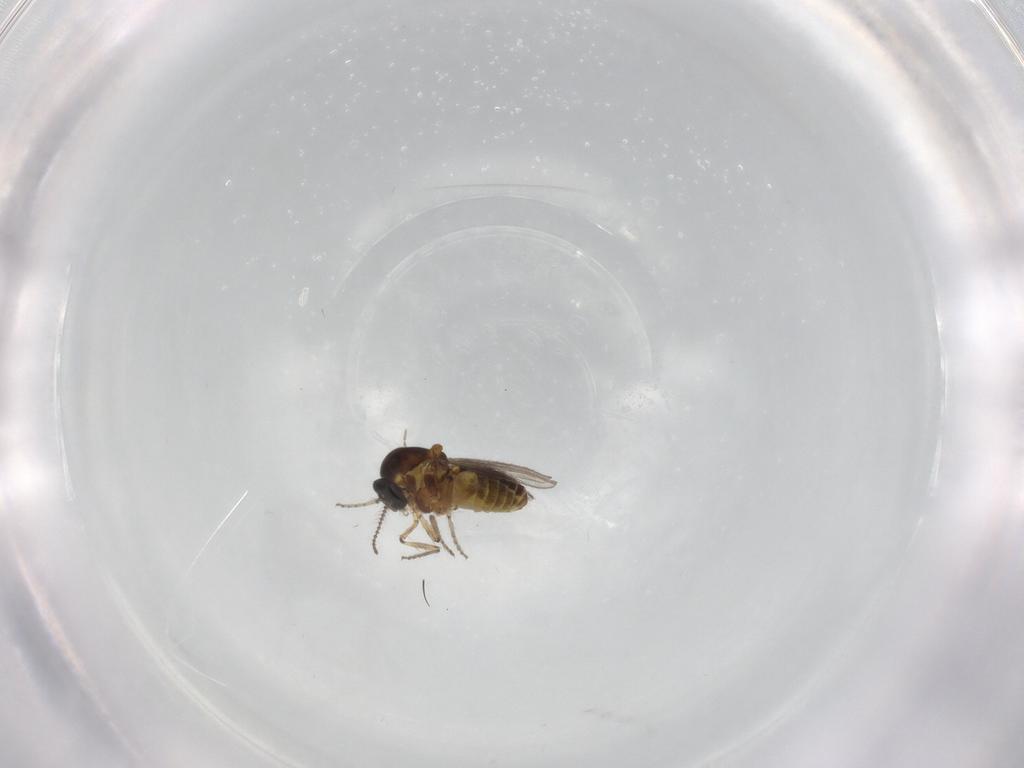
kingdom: Animalia
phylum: Arthropoda
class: Insecta
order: Diptera
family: Ceratopogonidae
